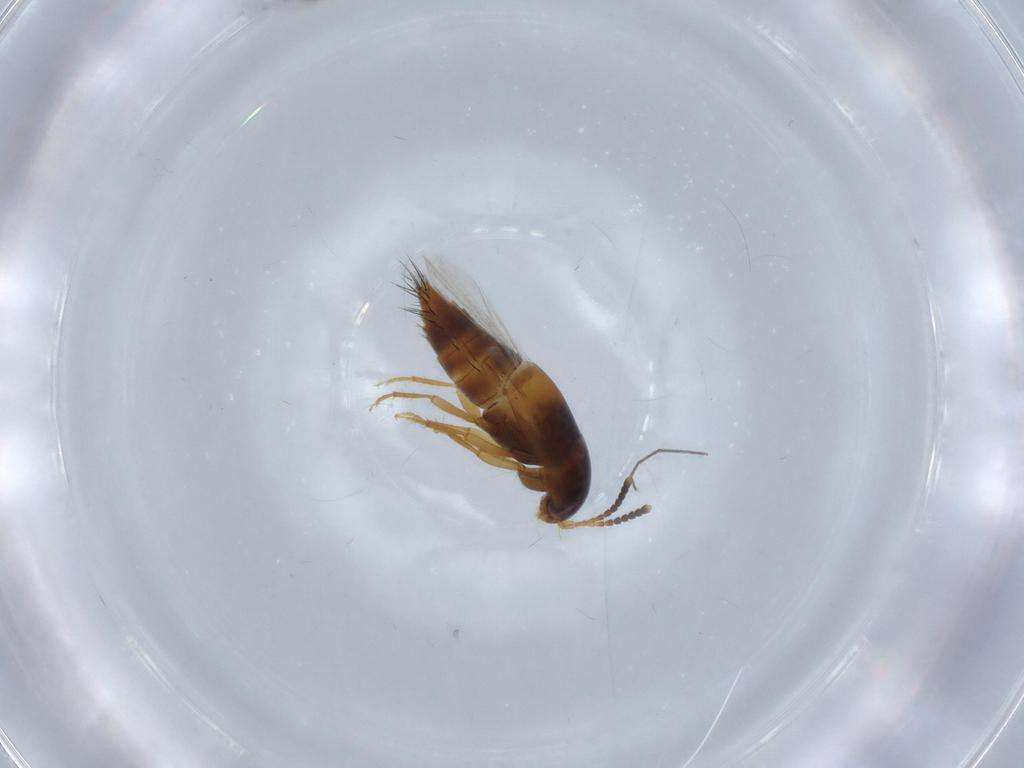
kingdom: Animalia
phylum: Arthropoda
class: Insecta
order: Coleoptera
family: Staphylinidae
